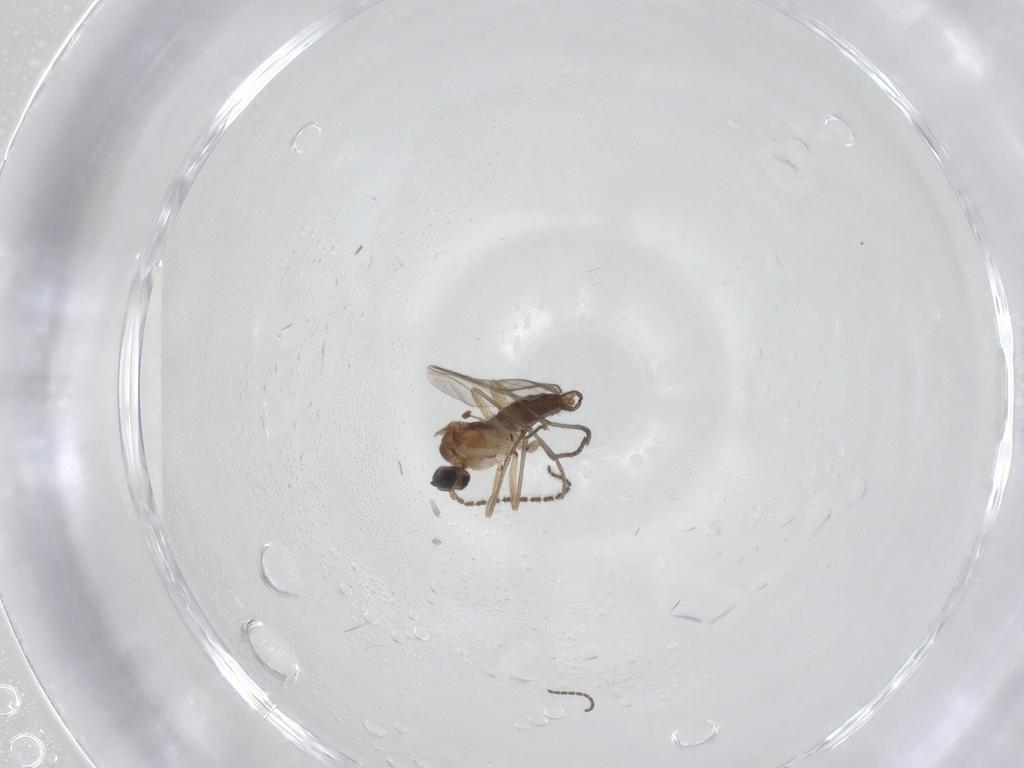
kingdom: Animalia
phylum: Arthropoda
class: Insecta
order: Diptera
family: Sciaridae
